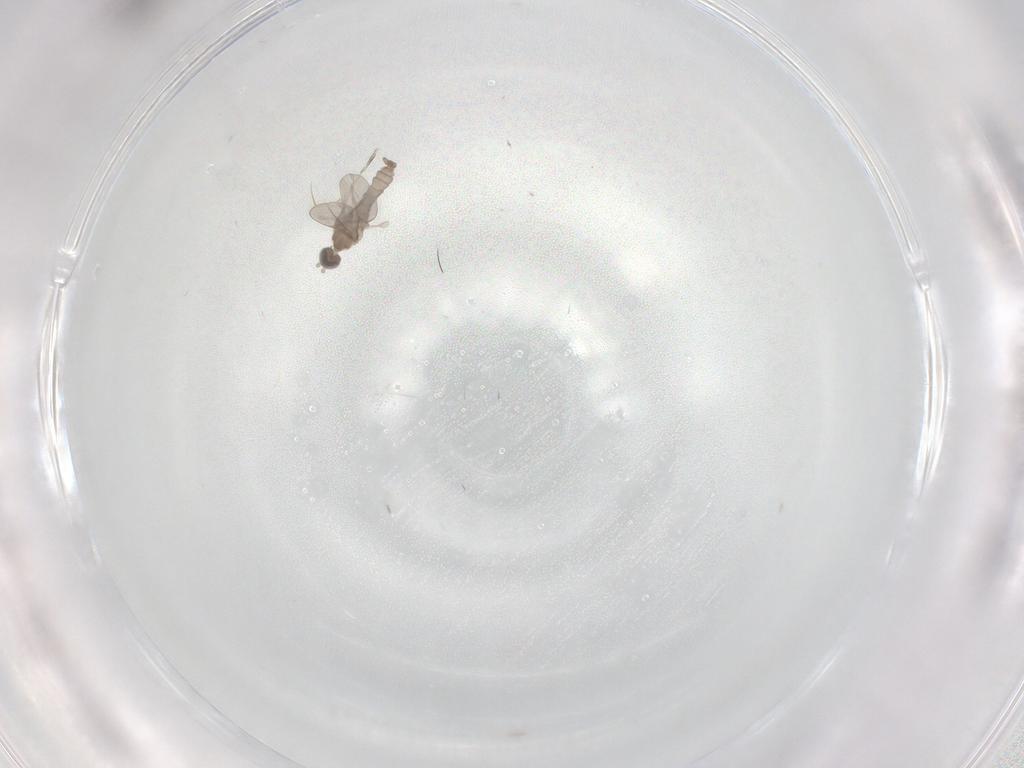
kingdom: Animalia
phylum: Arthropoda
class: Insecta
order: Diptera
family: Cecidomyiidae
